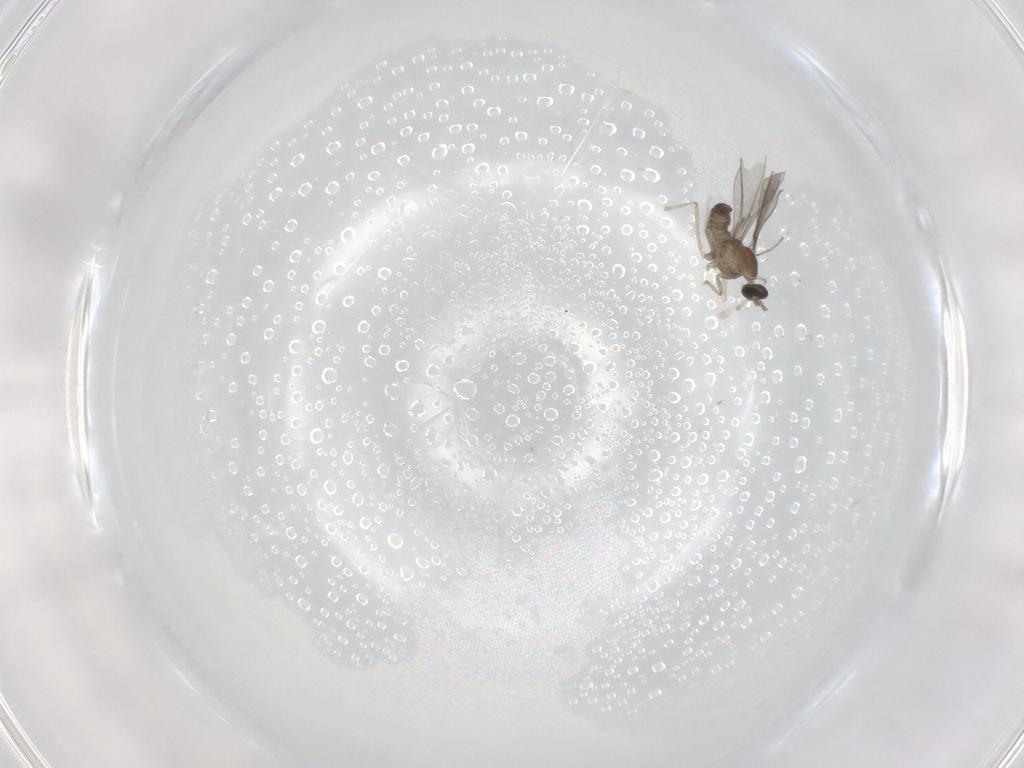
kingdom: Animalia
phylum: Arthropoda
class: Insecta
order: Diptera
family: Cecidomyiidae
